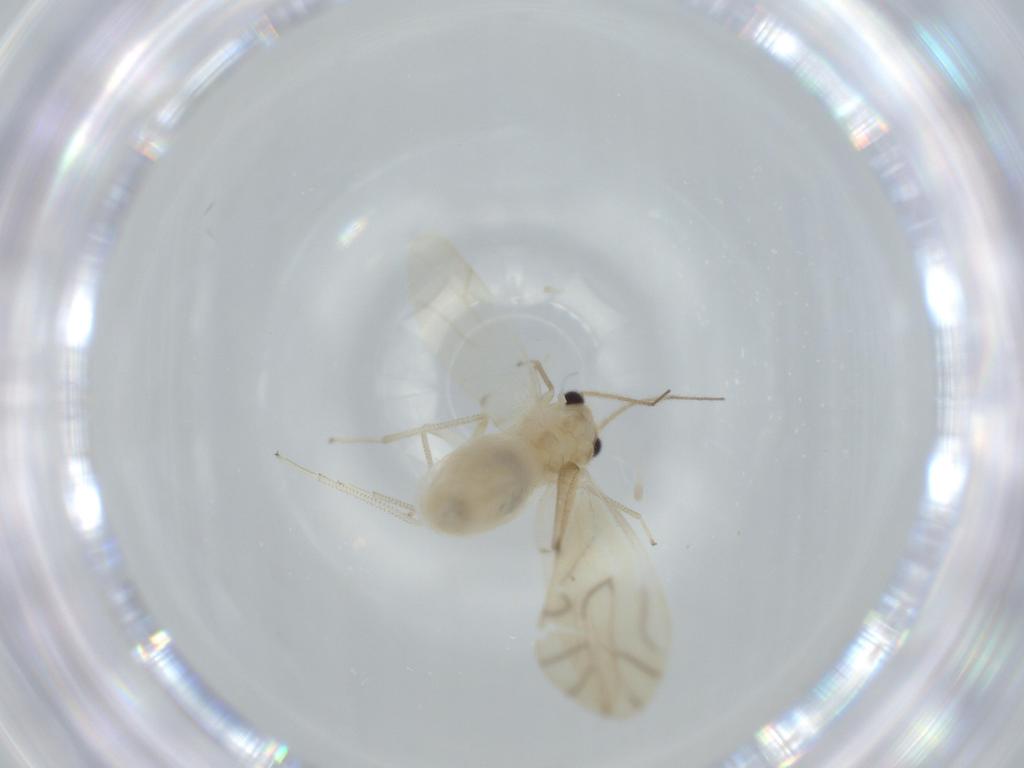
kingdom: Animalia
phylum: Arthropoda
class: Insecta
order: Psocodea
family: Caeciliusidae
